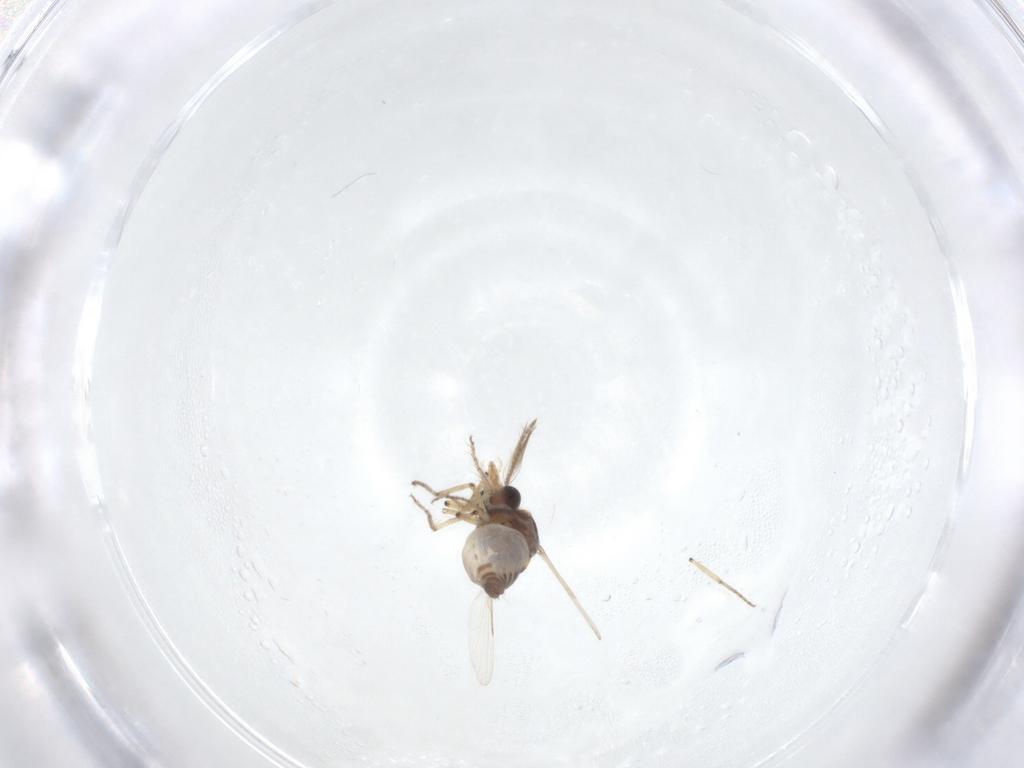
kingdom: Animalia
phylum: Arthropoda
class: Insecta
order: Diptera
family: Ceratopogonidae
